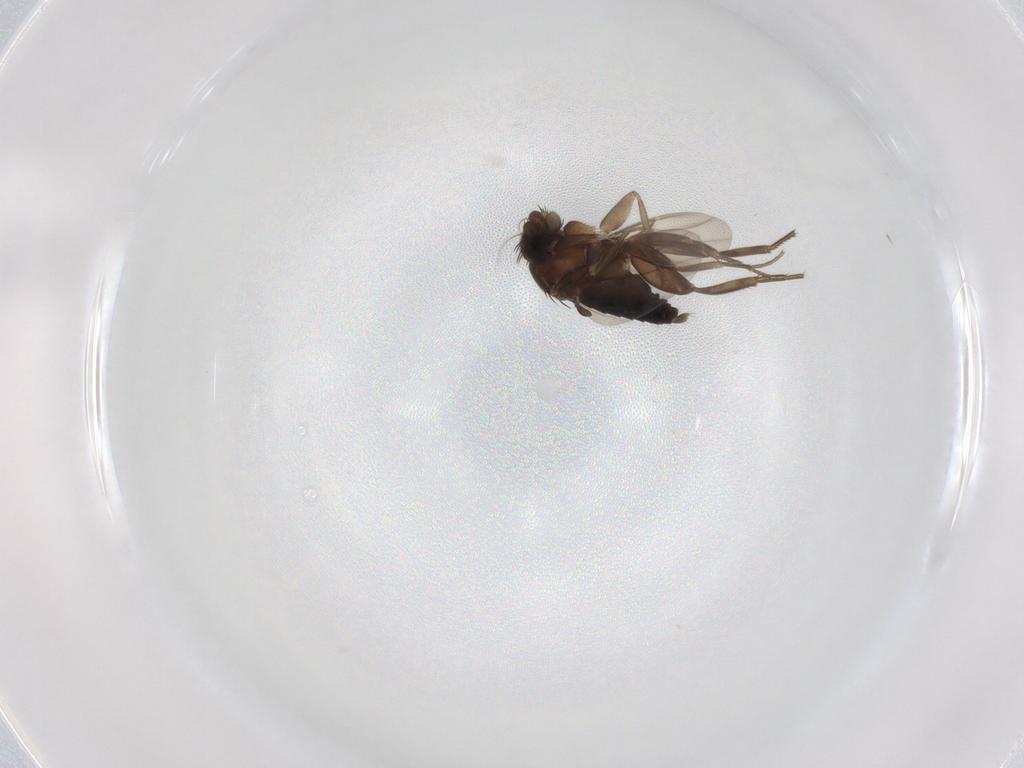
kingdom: Animalia
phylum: Arthropoda
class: Insecta
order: Diptera
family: Phoridae
